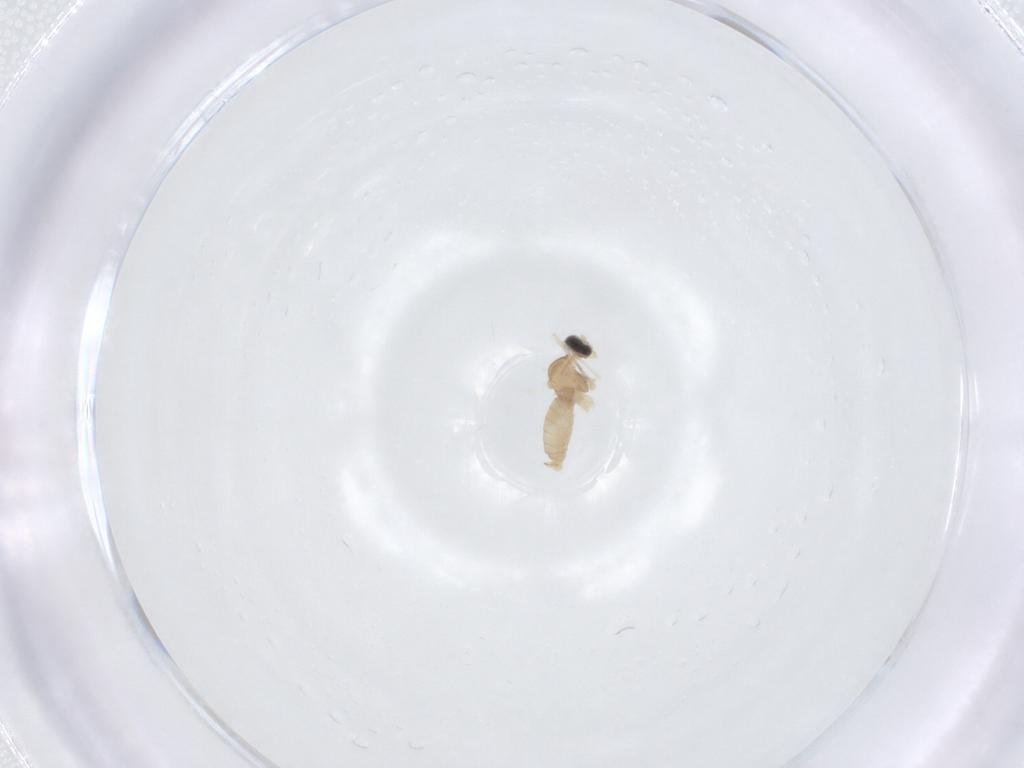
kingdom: Animalia
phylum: Arthropoda
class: Insecta
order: Diptera
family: Cecidomyiidae
